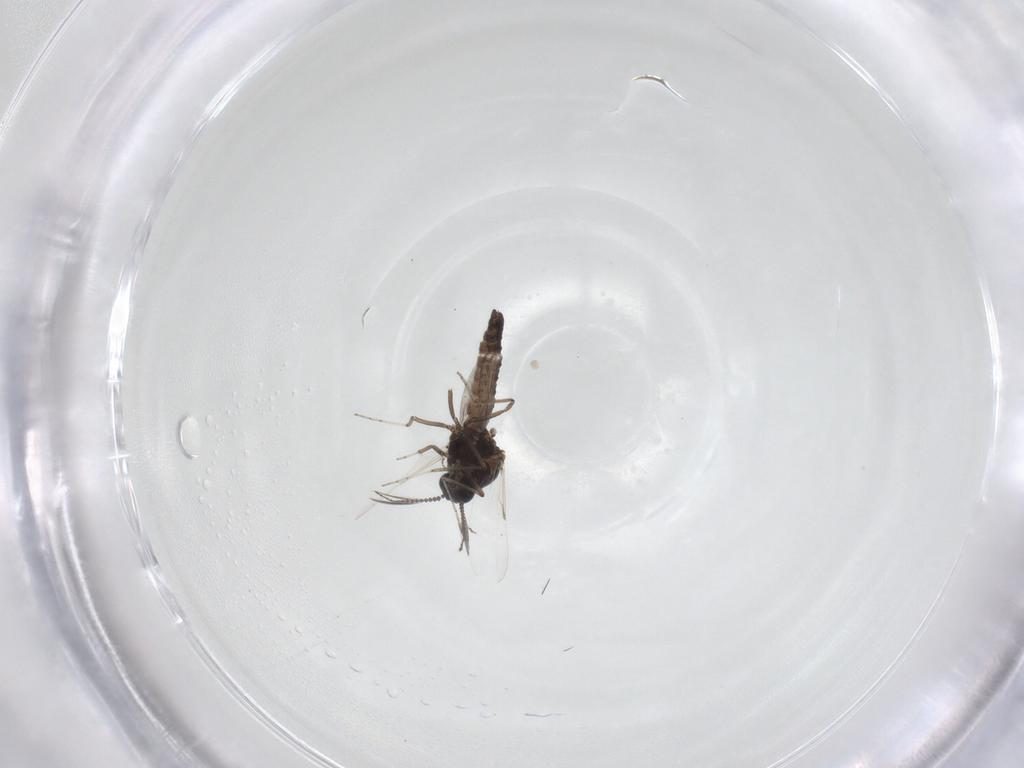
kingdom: Animalia
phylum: Arthropoda
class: Insecta
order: Diptera
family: Ceratopogonidae
